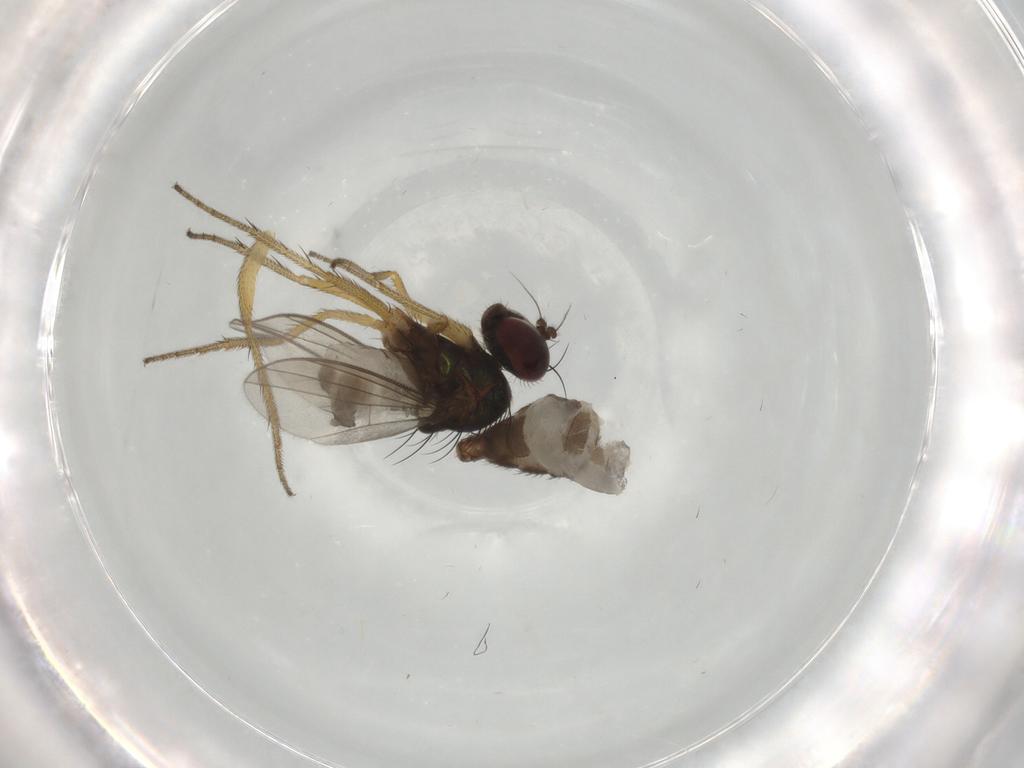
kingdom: Animalia
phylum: Arthropoda
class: Insecta
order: Diptera
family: Dolichopodidae
